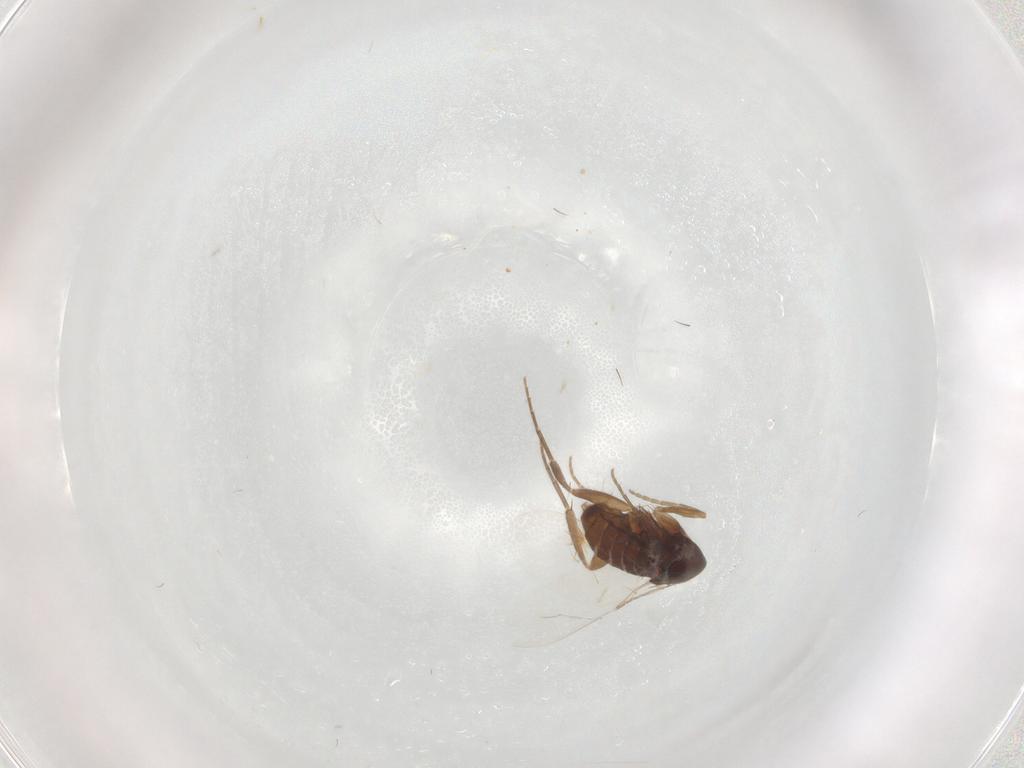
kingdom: Animalia
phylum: Arthropoda
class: Insecta
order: Diptera
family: Phoridae
